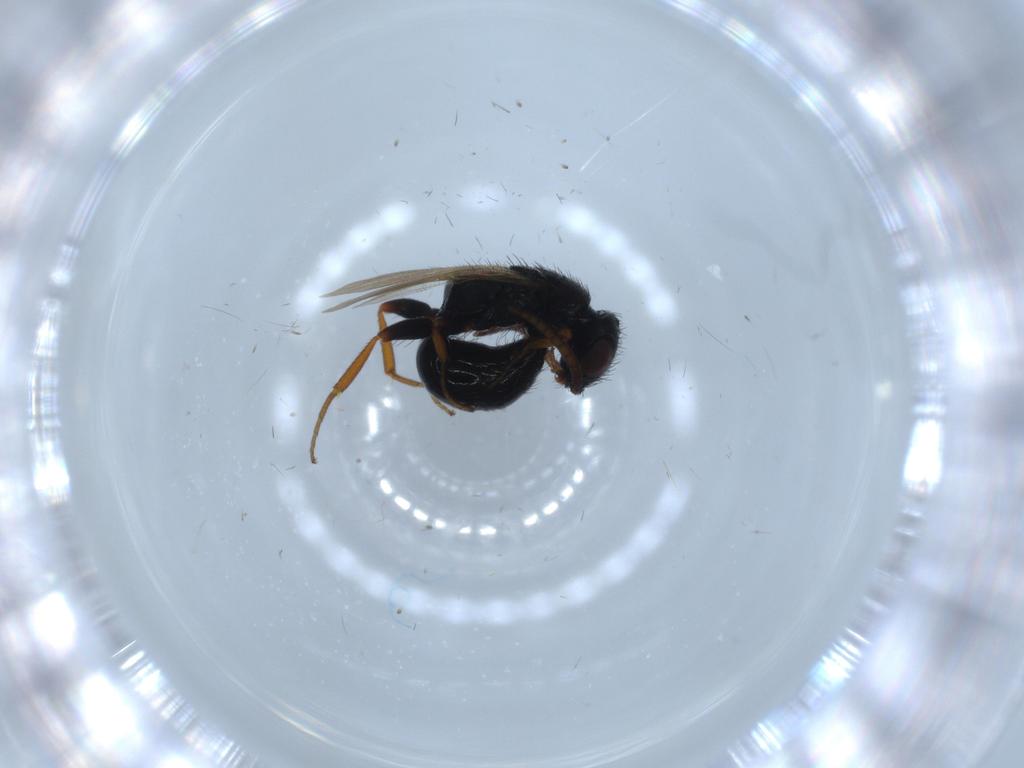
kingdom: Animalia
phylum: Arthropoda
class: Insecta
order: Hymenoptera
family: Bethylidae
